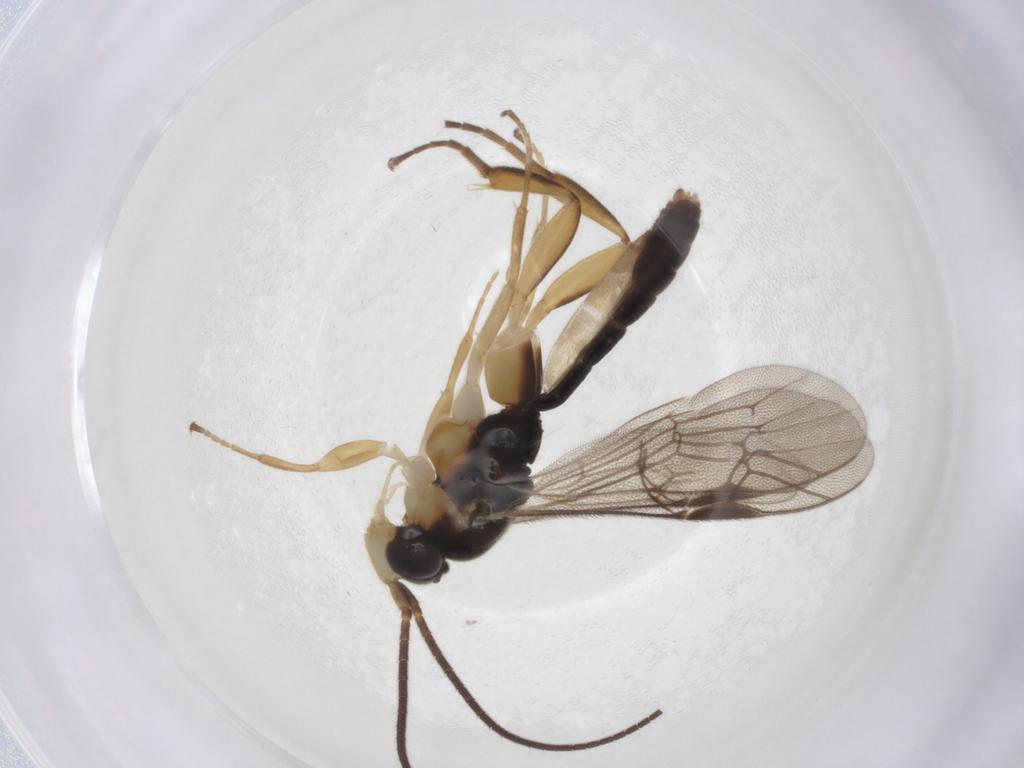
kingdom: Animalia
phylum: Arthropoda
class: Insecta
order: Hymenoptera
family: Ichneumonidae
